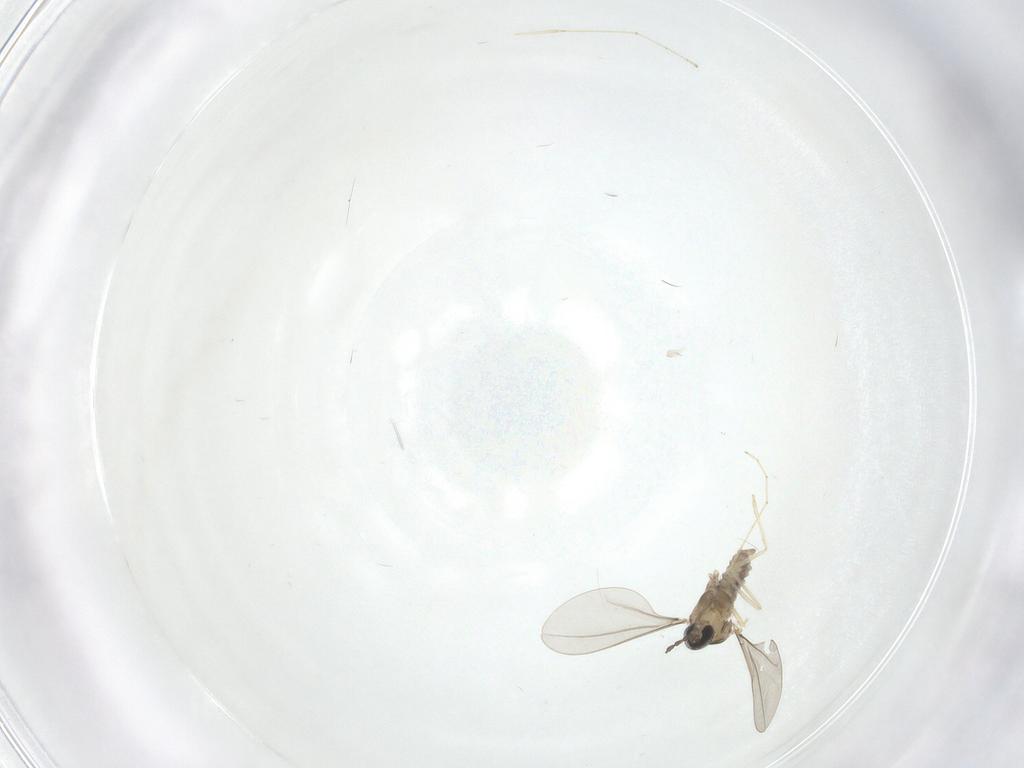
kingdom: Animalia
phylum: Arthropoda
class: Insecta
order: Diptera
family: Cecidomyiidae
